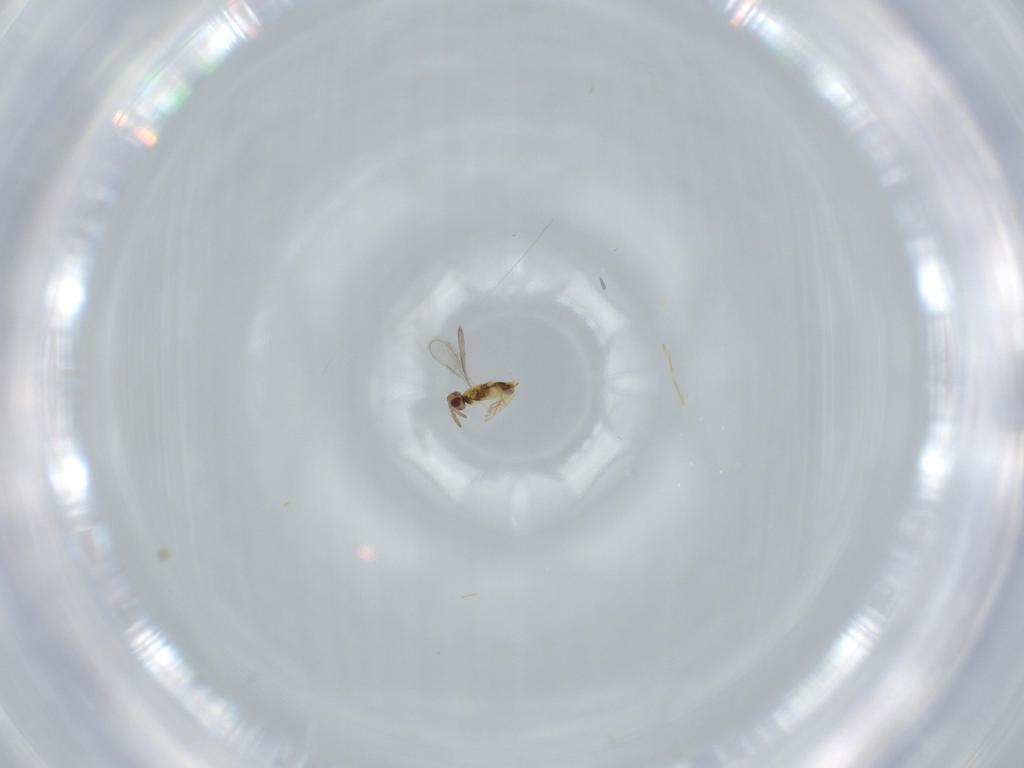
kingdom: Animalia
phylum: Arthropoda
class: Insecta
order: Hymenoptera
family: Aphelinidae
